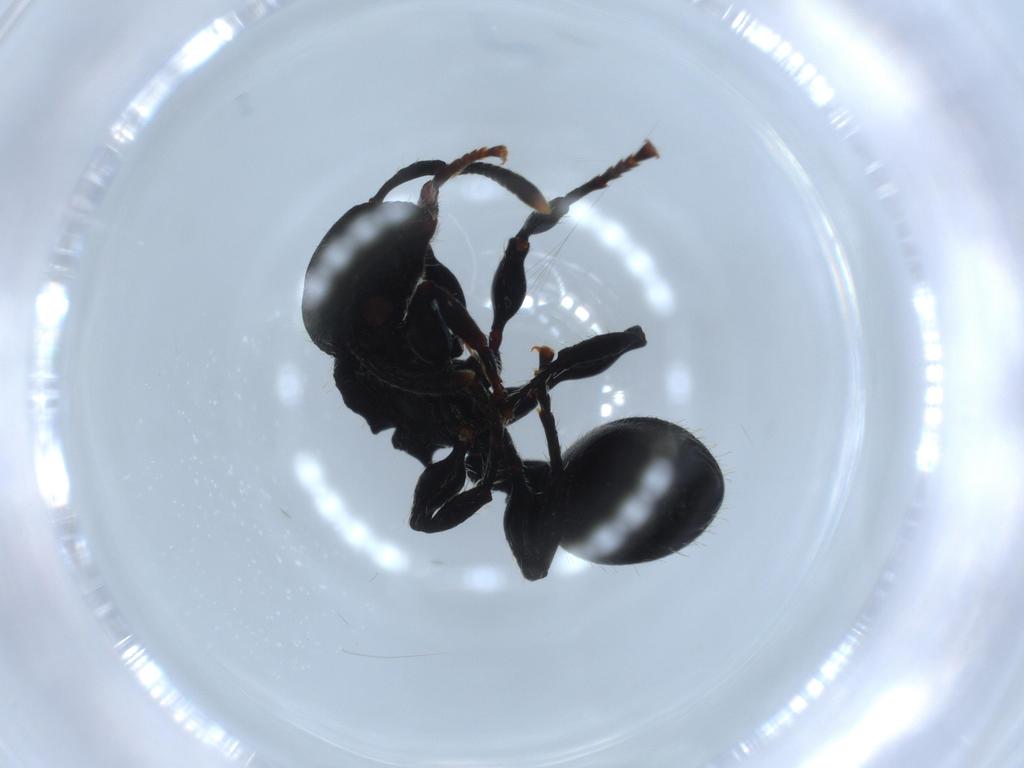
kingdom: Animalia
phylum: Arthropoda
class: Insecta
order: Hymenoptera
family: Formicidae
